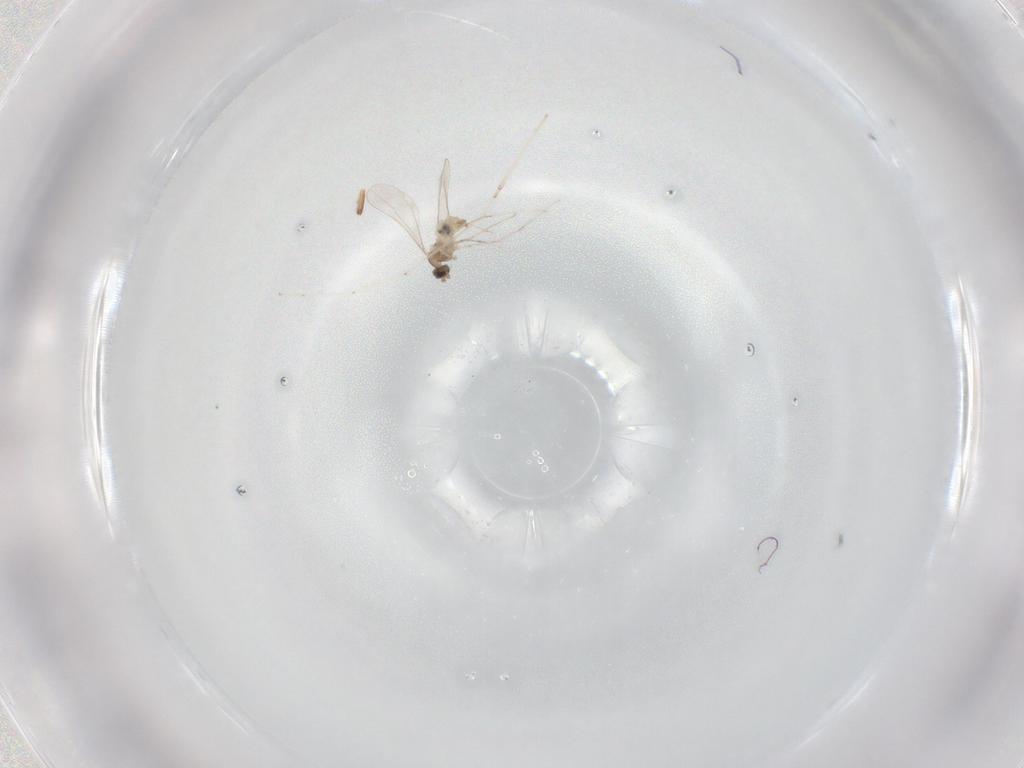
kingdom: Animalia
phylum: Arthropoda
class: Insecta
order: Diptera
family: Cecidomyiidae
